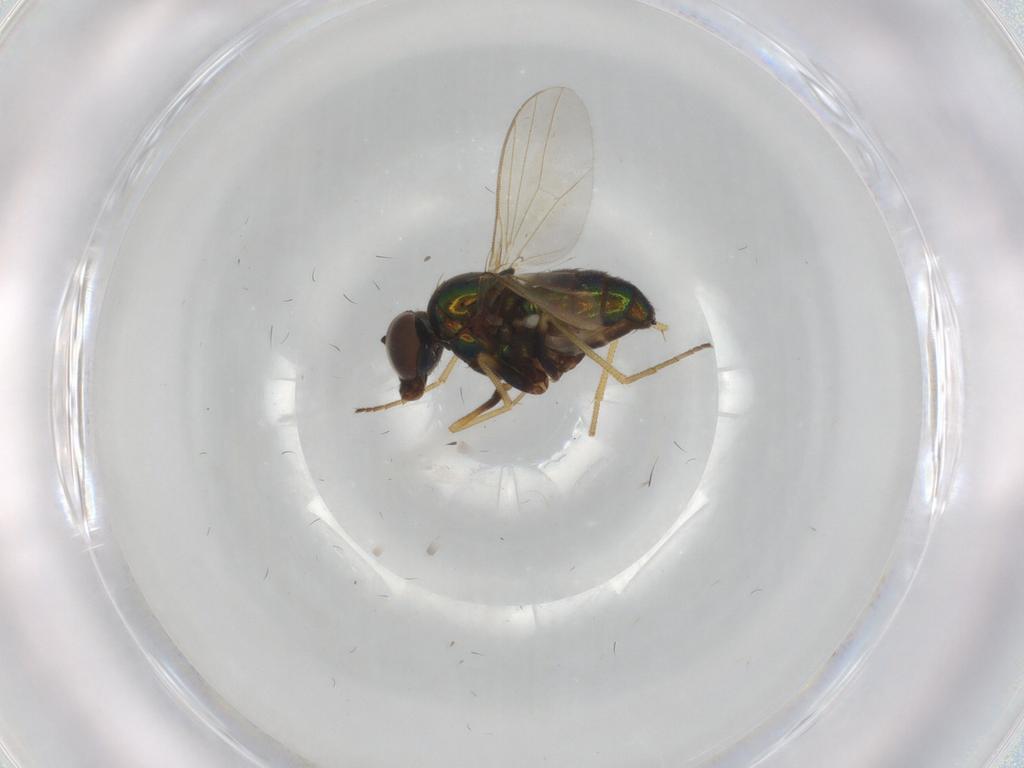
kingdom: Animalia
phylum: Arthropoda
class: Insecta
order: Diptera
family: Dolichopodidae
